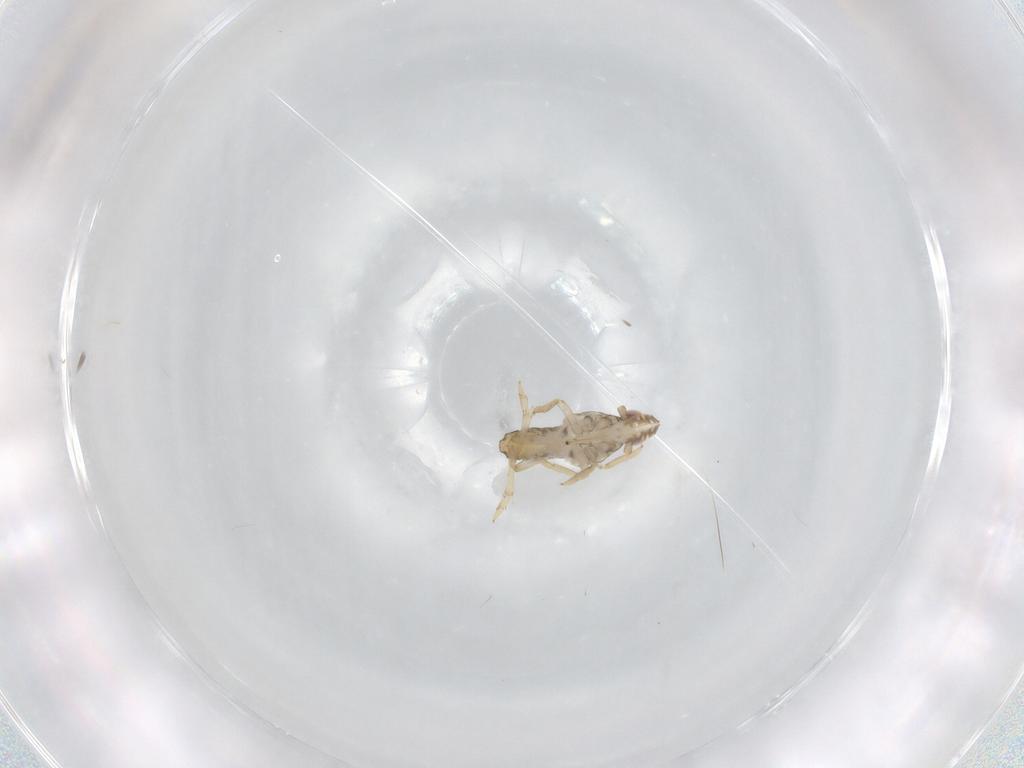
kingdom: Animalia
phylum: Arthropoda
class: Insecta
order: Hemiptera
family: Delphacidae
